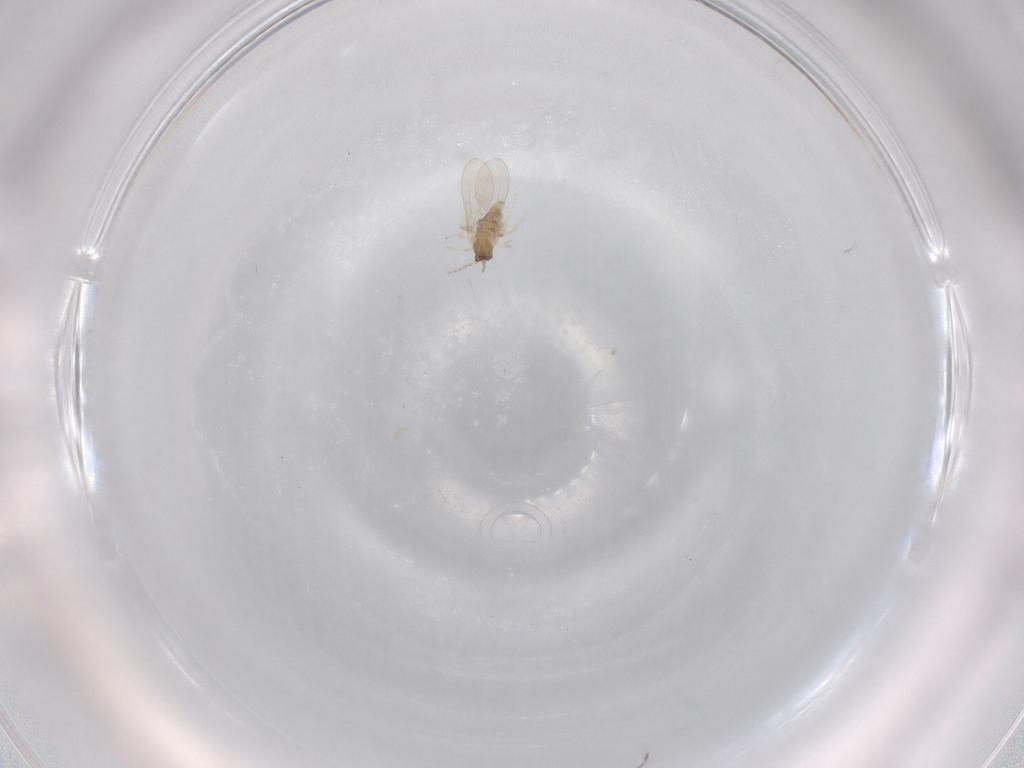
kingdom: Animalia
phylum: Arthropoda
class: Insecta
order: Diptera
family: Cecidomyiidae
